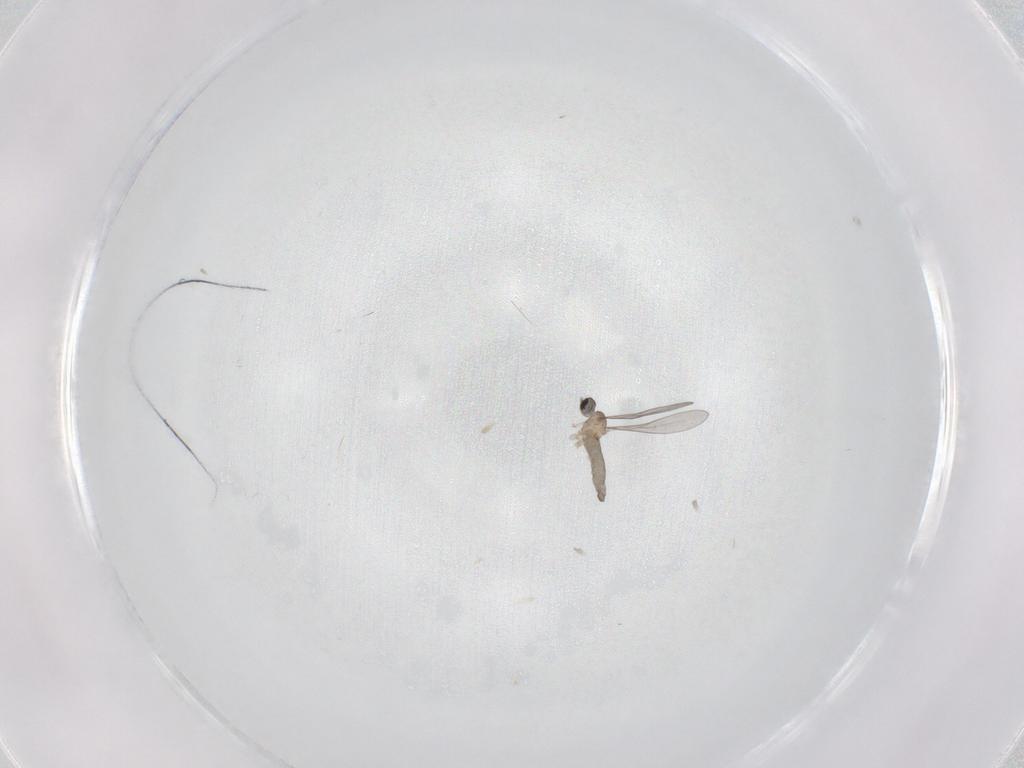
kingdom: Animalia
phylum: Arthropoda
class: Insecta
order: Diptera
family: Cecidomyiidae
